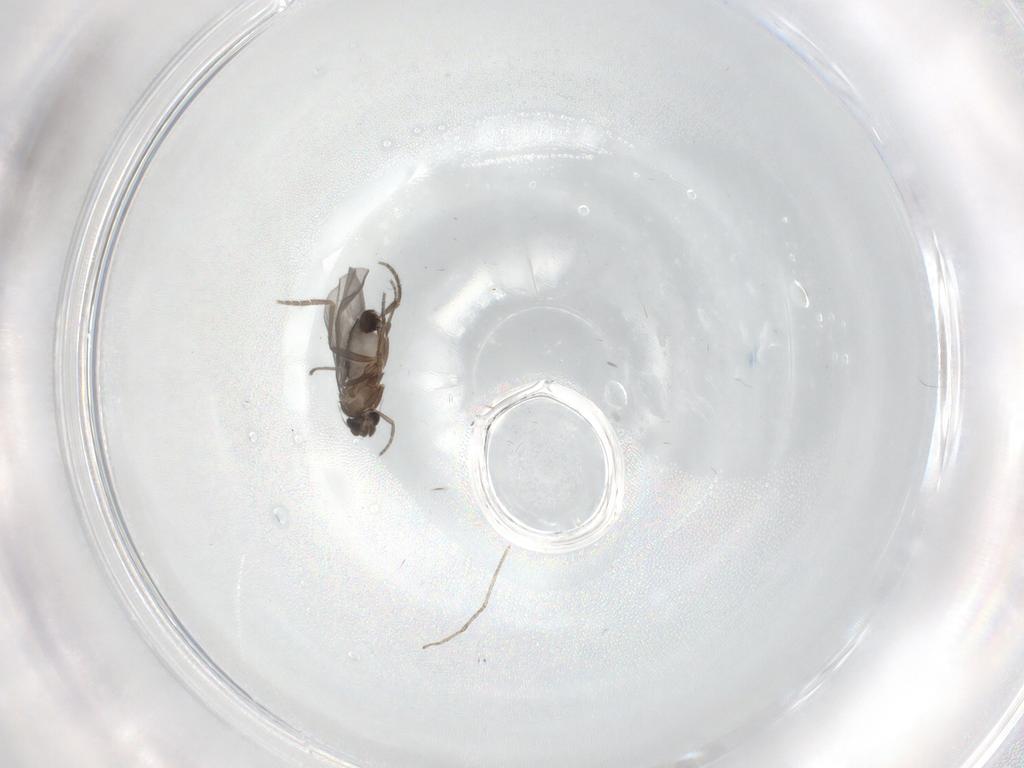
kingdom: Animalia
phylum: Arthropoda
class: Insecta
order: Diptera
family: Phoridae
